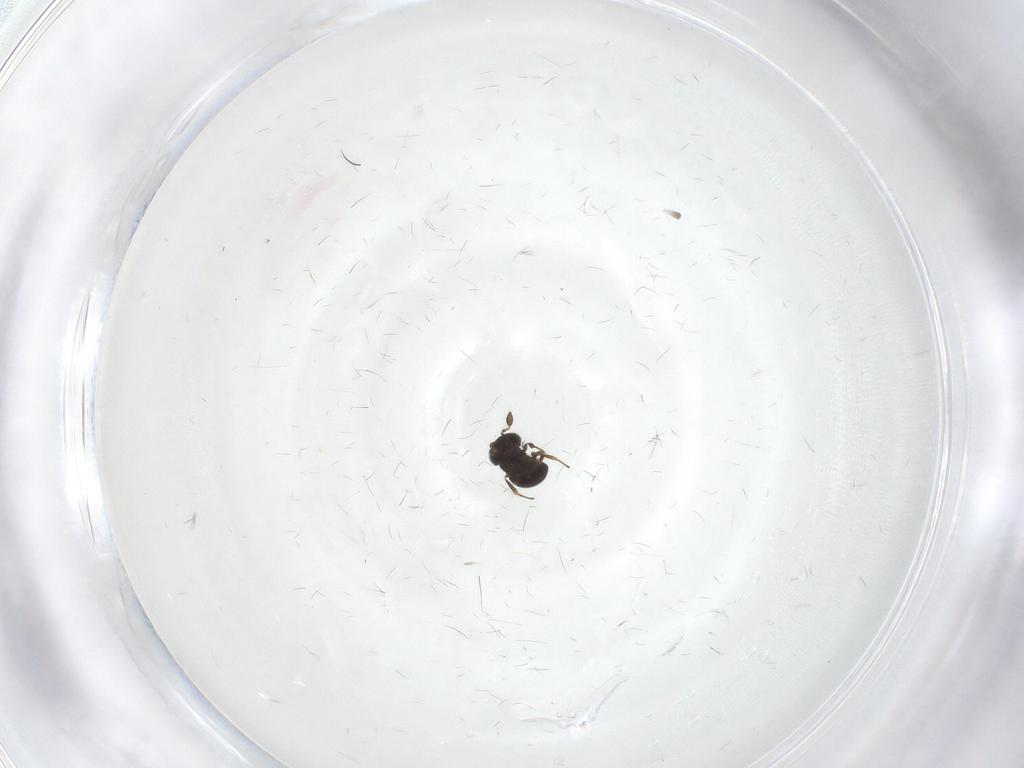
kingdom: Animalia
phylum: Arthropoda
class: Insecta
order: Hymenoptera
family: Scelionidae
